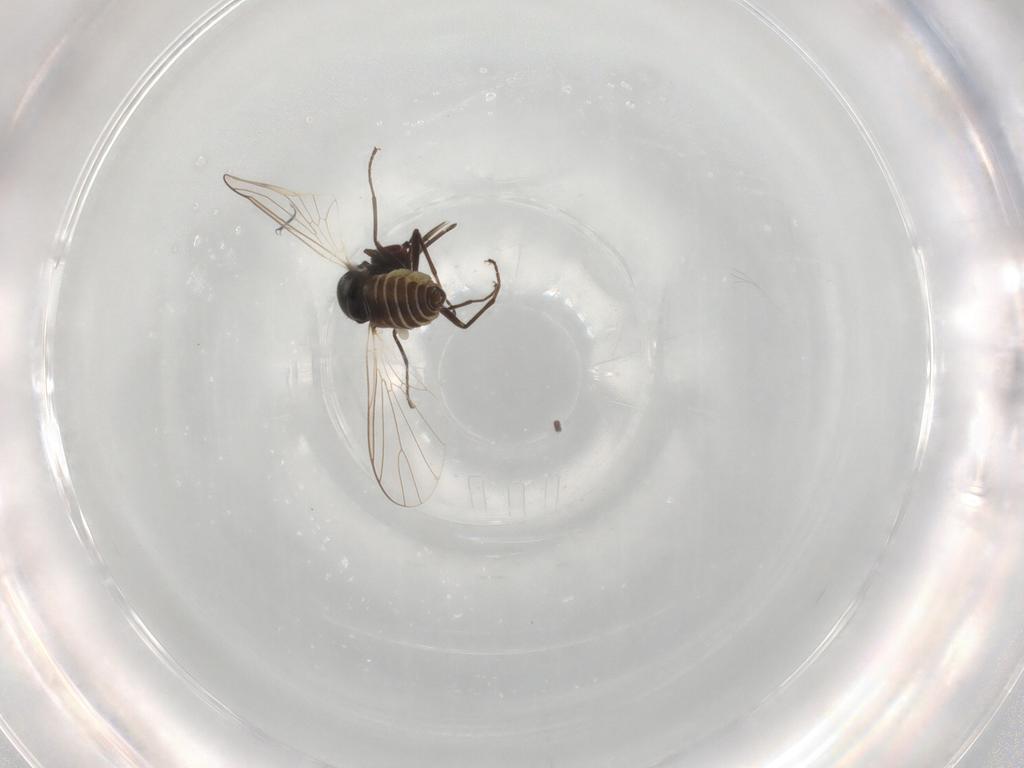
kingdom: Animalia
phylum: Arthropoda
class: Insecta
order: Diptera
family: Bombyliidae
